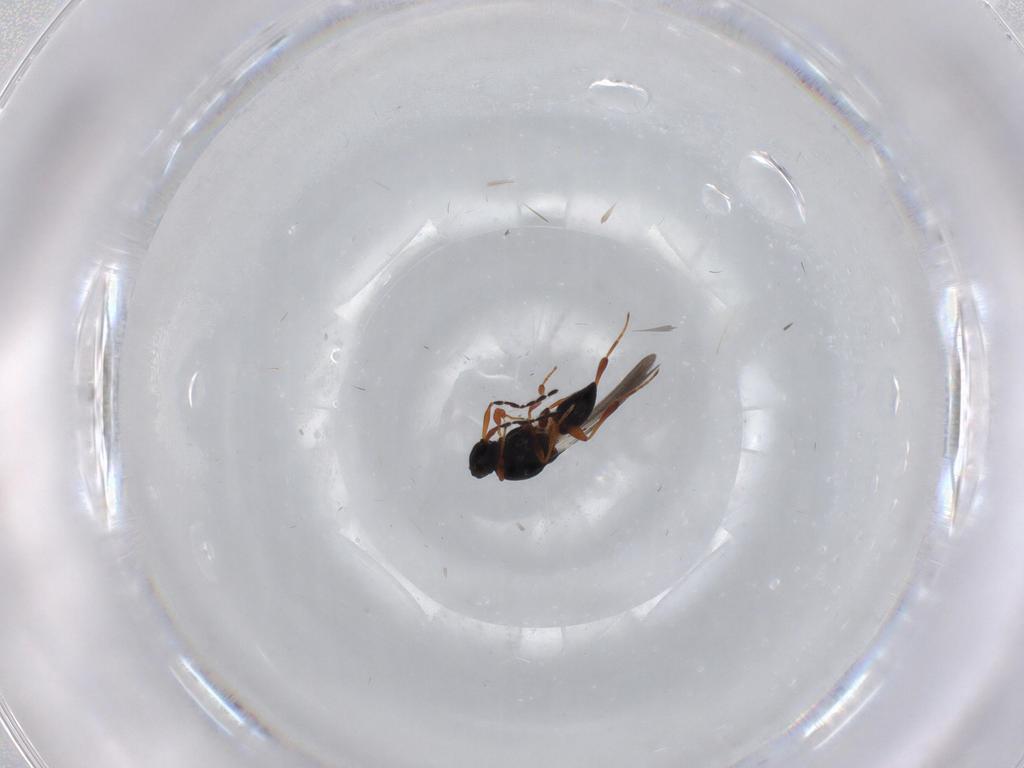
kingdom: Animalia
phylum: Arthropoda
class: Insecta
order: Hymenoptera
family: Platygastridae
